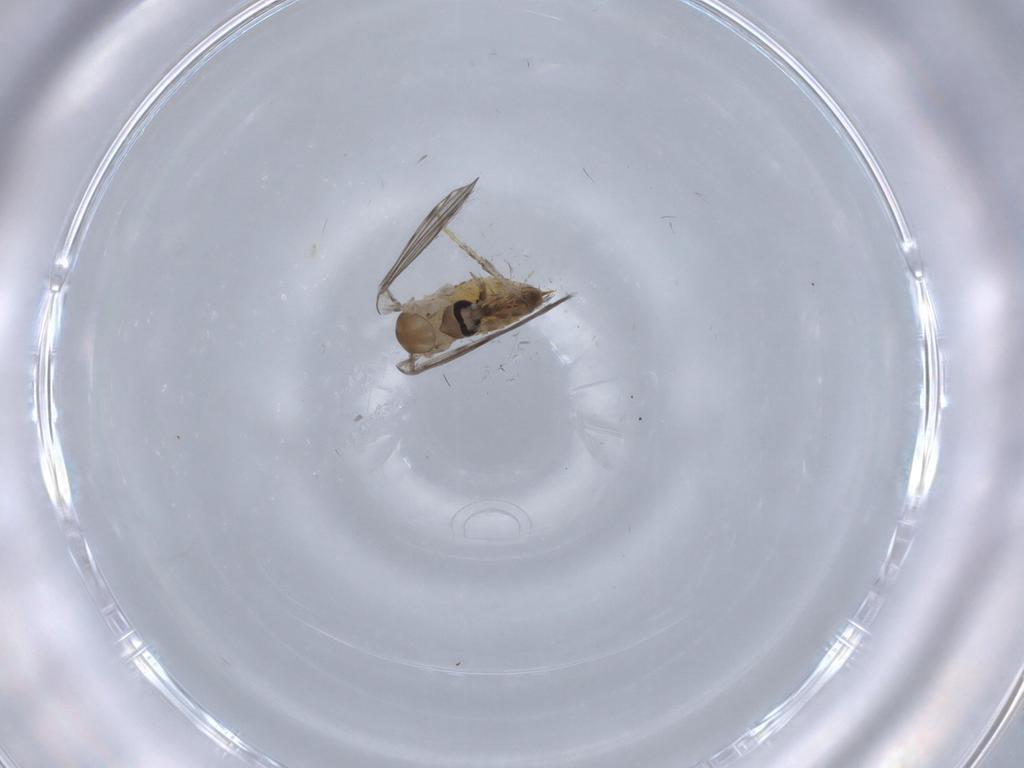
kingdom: Animalia
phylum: Arthropoda
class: Insecta
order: Diptera
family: Psychodidae
